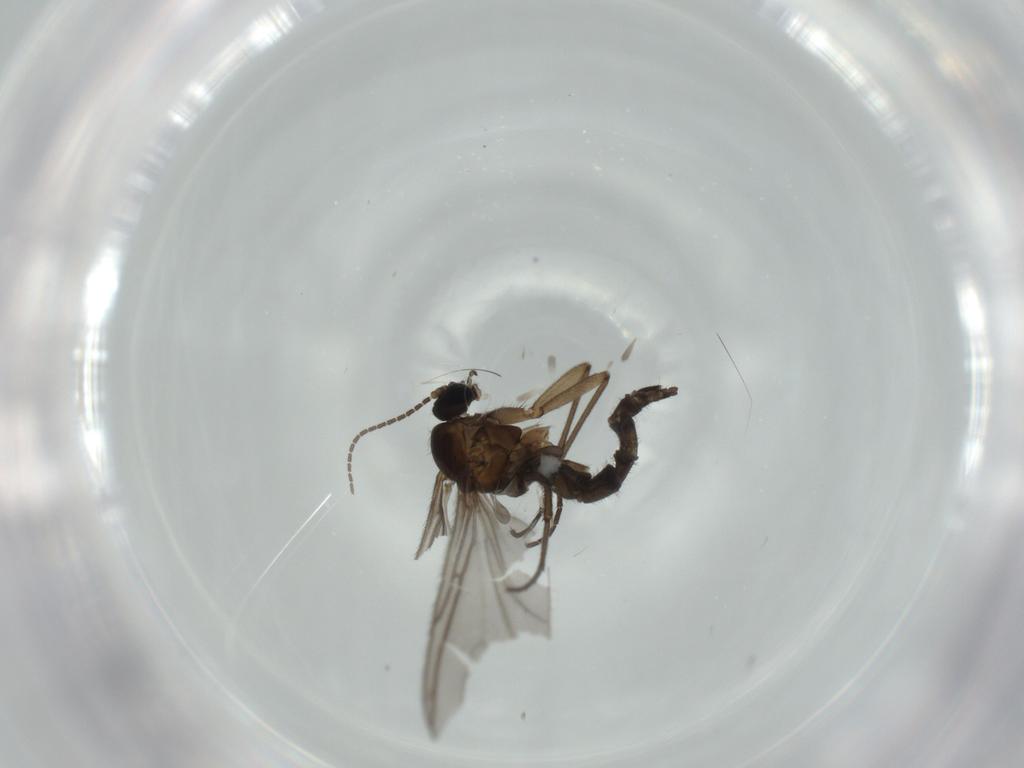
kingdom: Animalia
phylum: Arthropoda
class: Insecta
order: Diptera
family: Sciaridae
